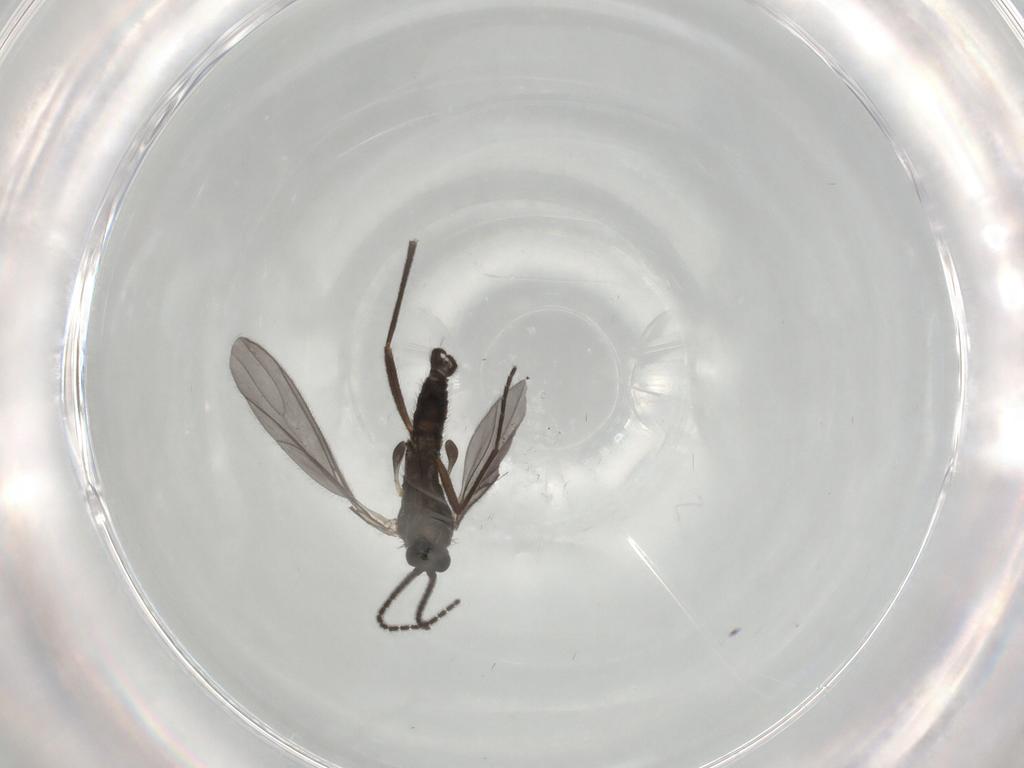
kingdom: Animalia
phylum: Arthropoda
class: Insecta
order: Diptera
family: Sciaridae
